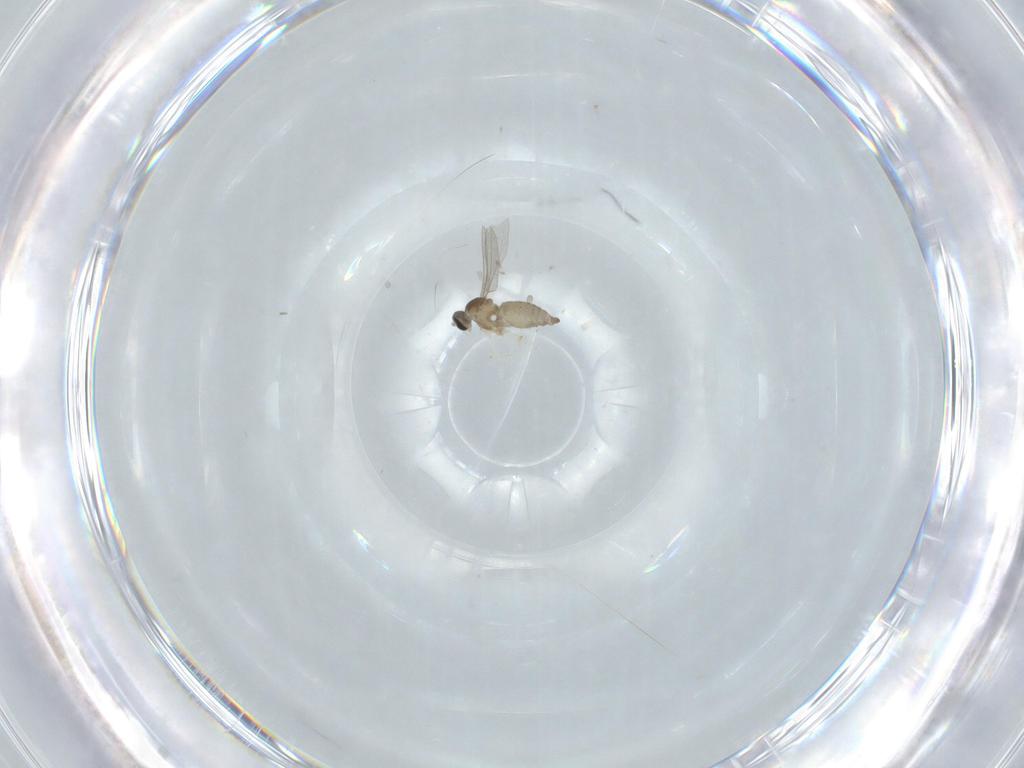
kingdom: Animalia
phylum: Arthropoda
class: Insecta
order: Diptera
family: Cecidomyiidae
